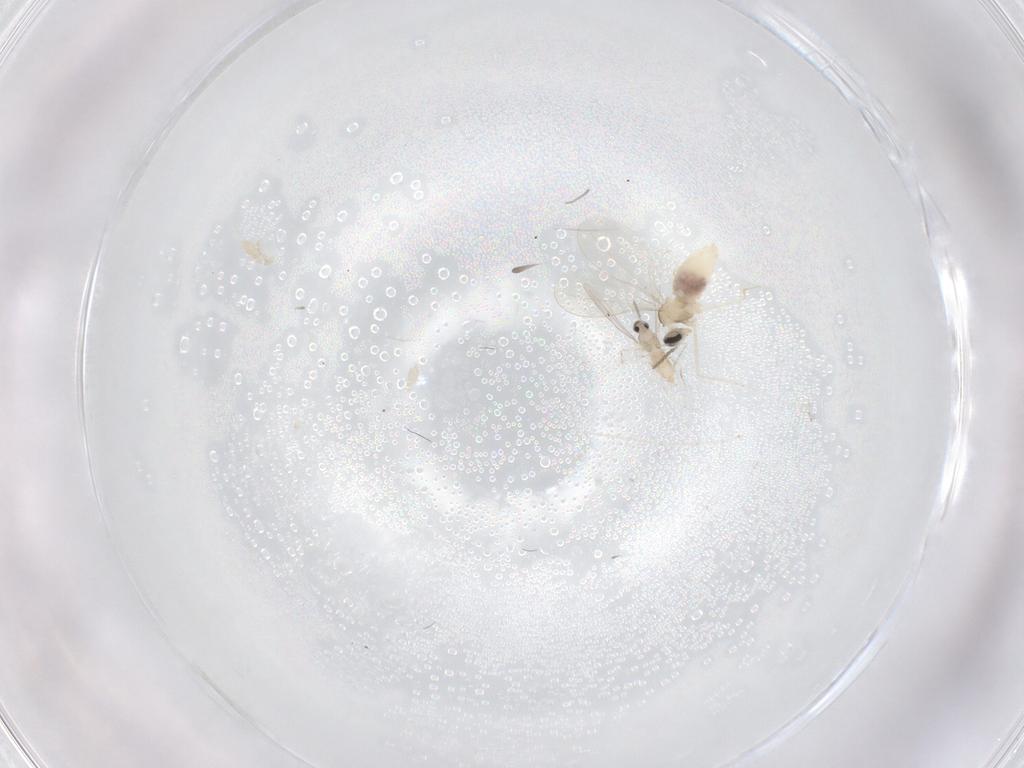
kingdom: Animalia
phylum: Arthropoda
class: Insecta
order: Diptera
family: Cecidomyiidae
